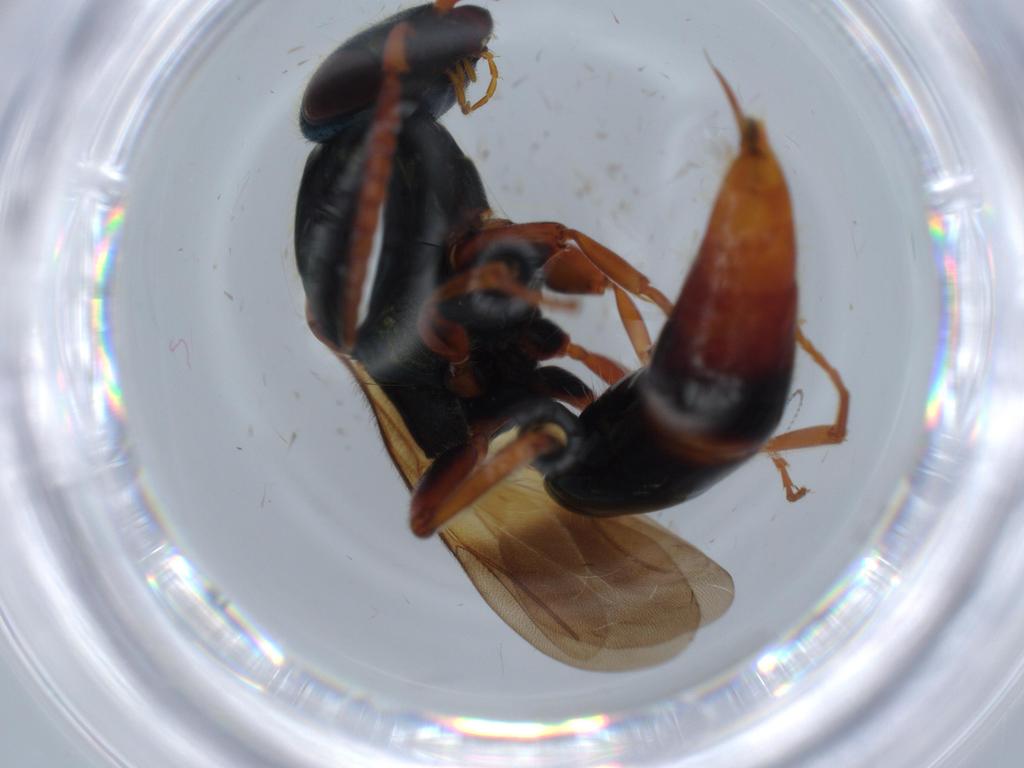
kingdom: Animalia
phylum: Arthropoda
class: Insecta
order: Hymenoptera
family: Bethylidae
